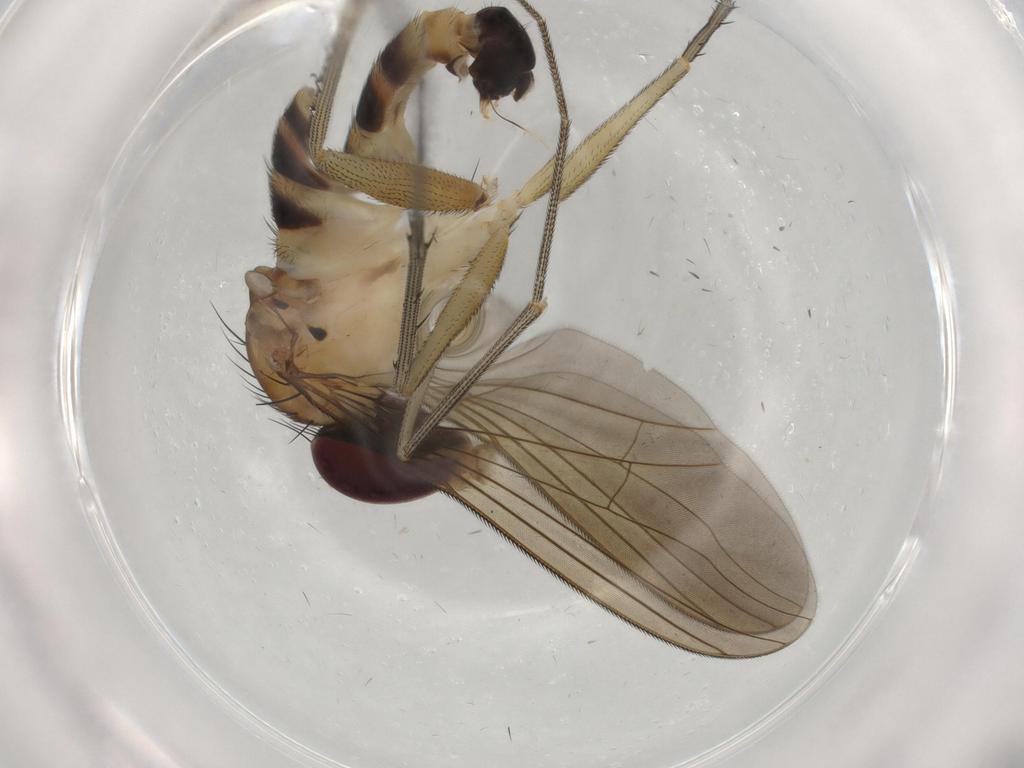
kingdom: Animalia
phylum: Arthropoda
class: Insecta
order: Diptera
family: Dolichopodidae
